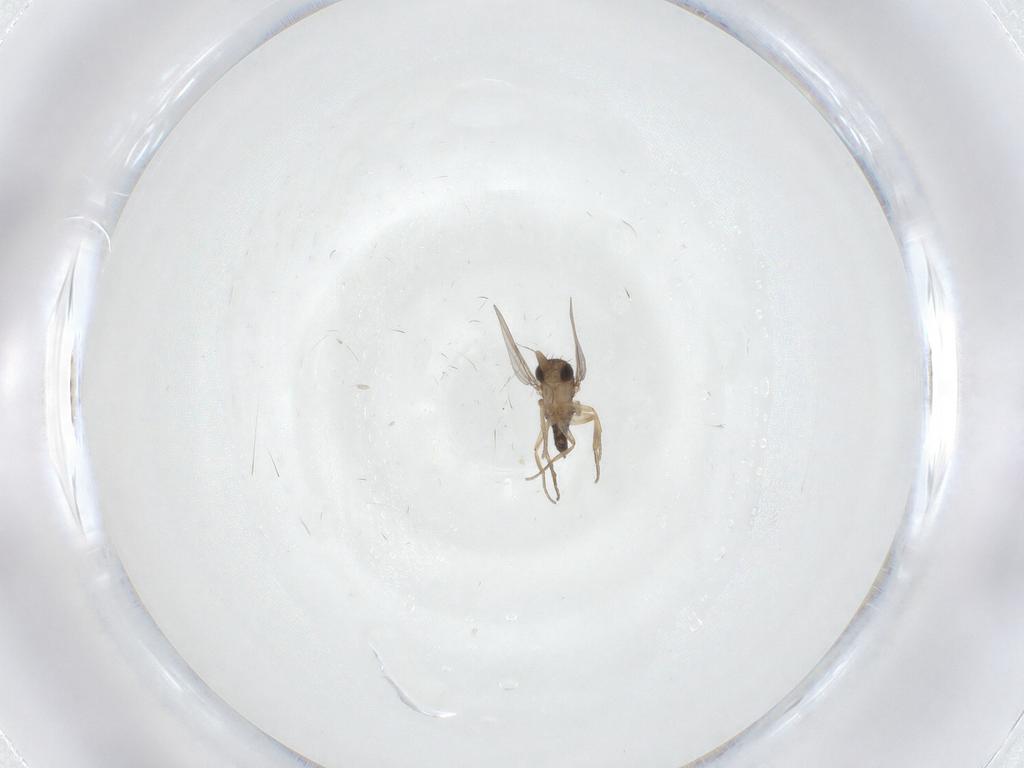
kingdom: Animalia
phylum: Arthropoda
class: Insecta
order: Diptera
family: Phoridae
